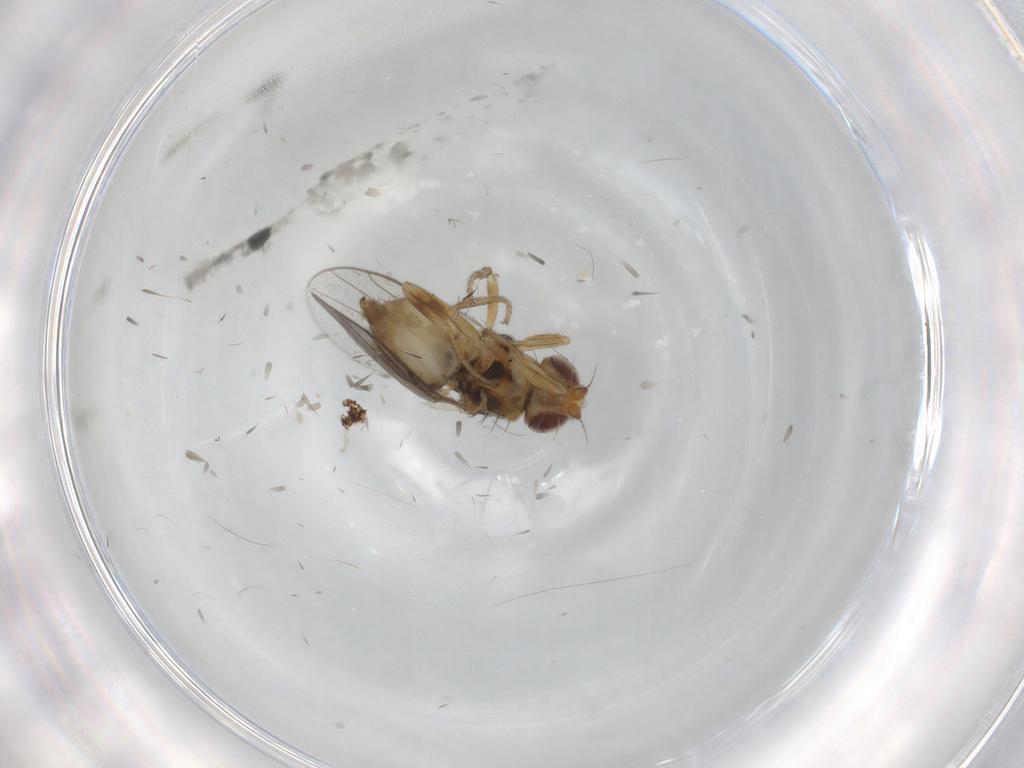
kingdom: Animalia
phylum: Arthropoda
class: Insecta
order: Diptera
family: Chloropidae
